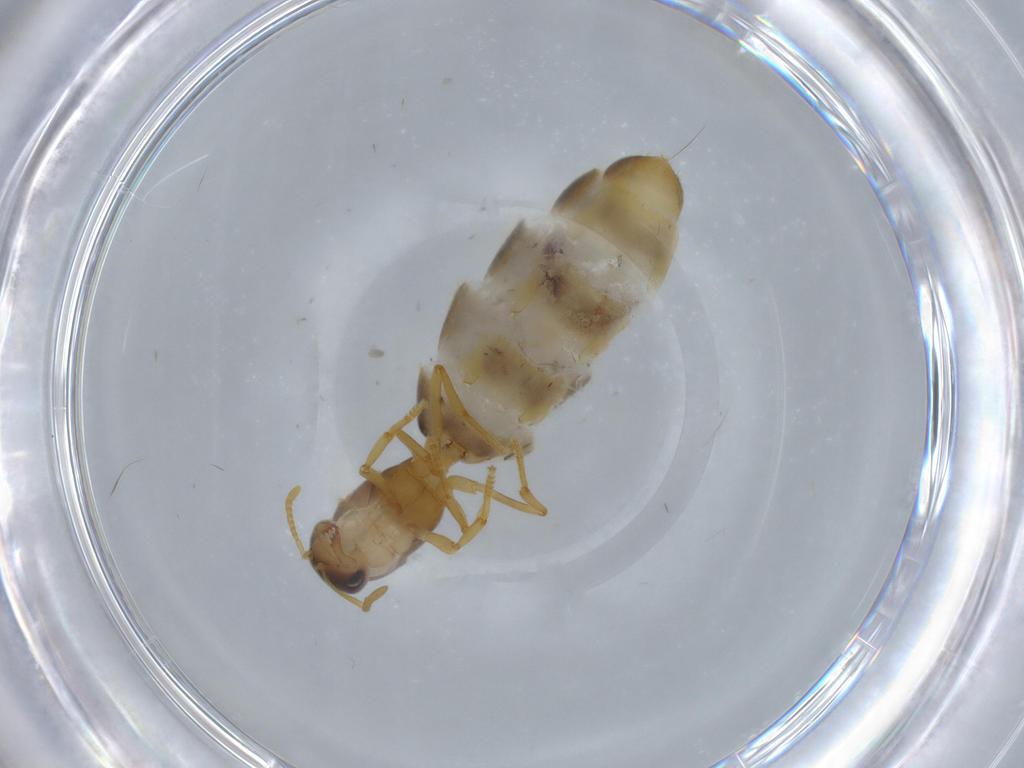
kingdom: Animalia
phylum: Arthropoda
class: Insecta
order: Hymenoptera
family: Formicidae
